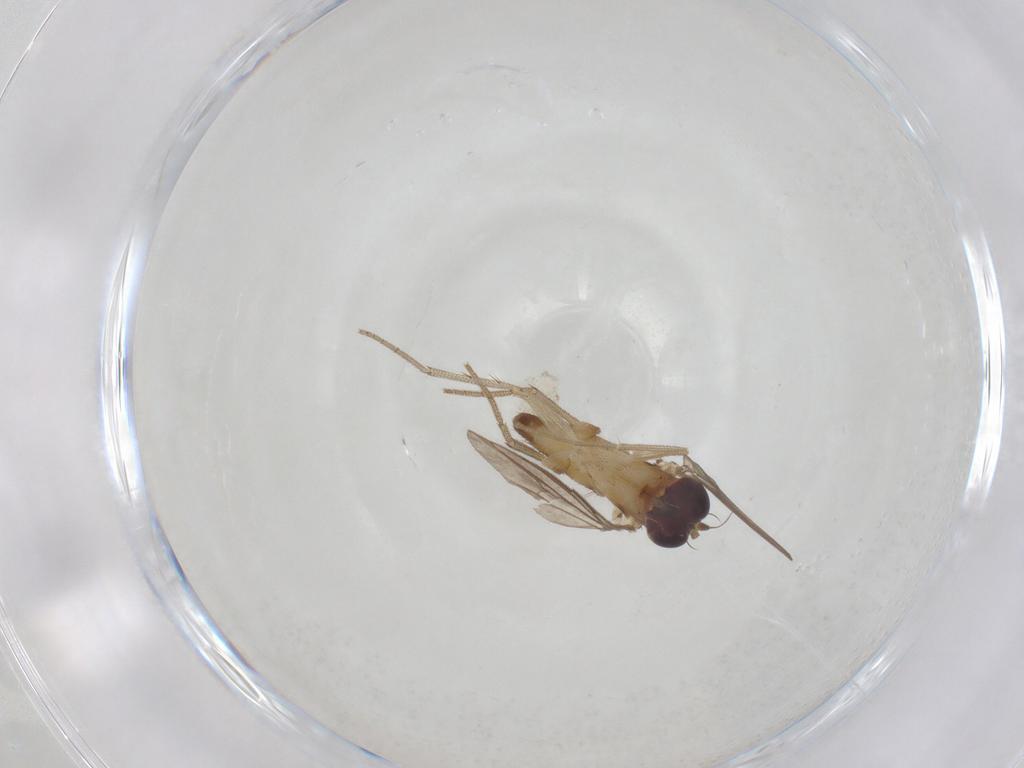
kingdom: Animalia
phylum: Arthropoda
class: Insecta
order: Diptera
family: Dolichopodidae
